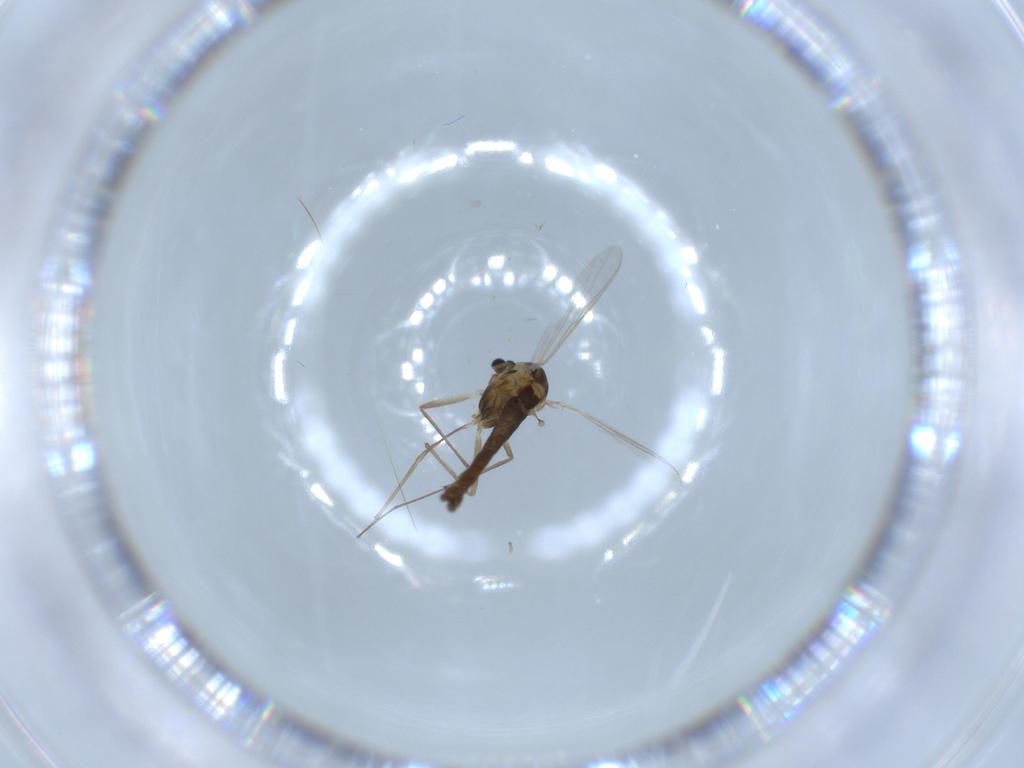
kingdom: Animalia
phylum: Arthropoda
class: Insecta
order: Diptera
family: Chironomidae
